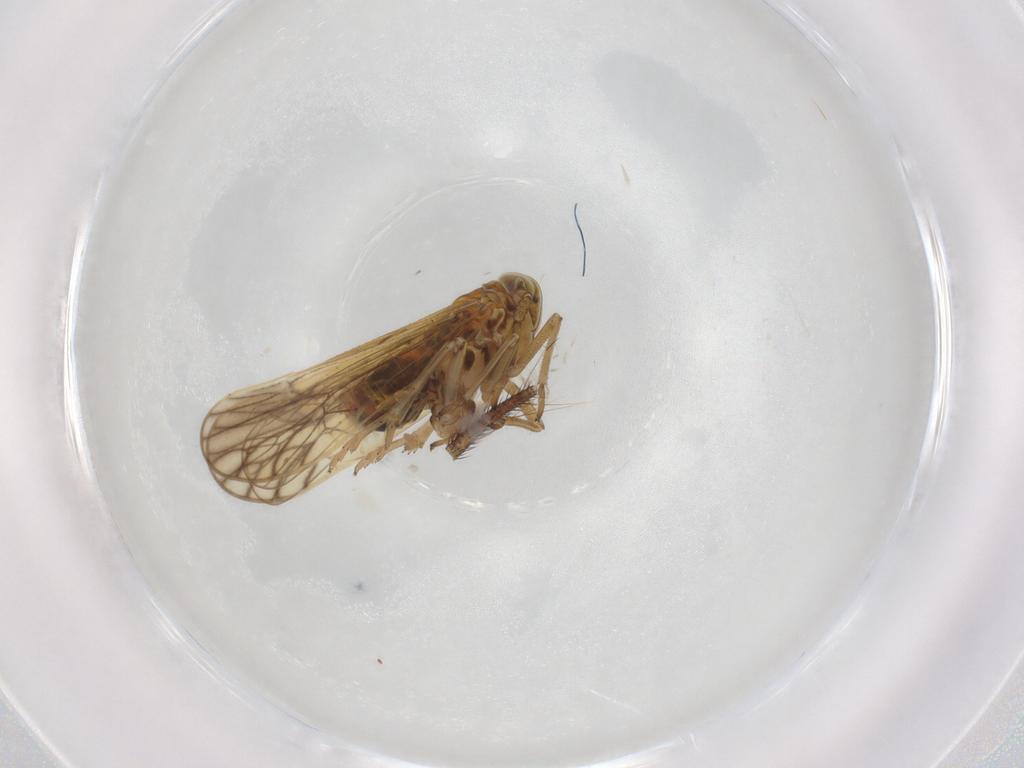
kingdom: Animalia
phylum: Arthropoda
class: Insecta
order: Hemiptera
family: Delphacidae
